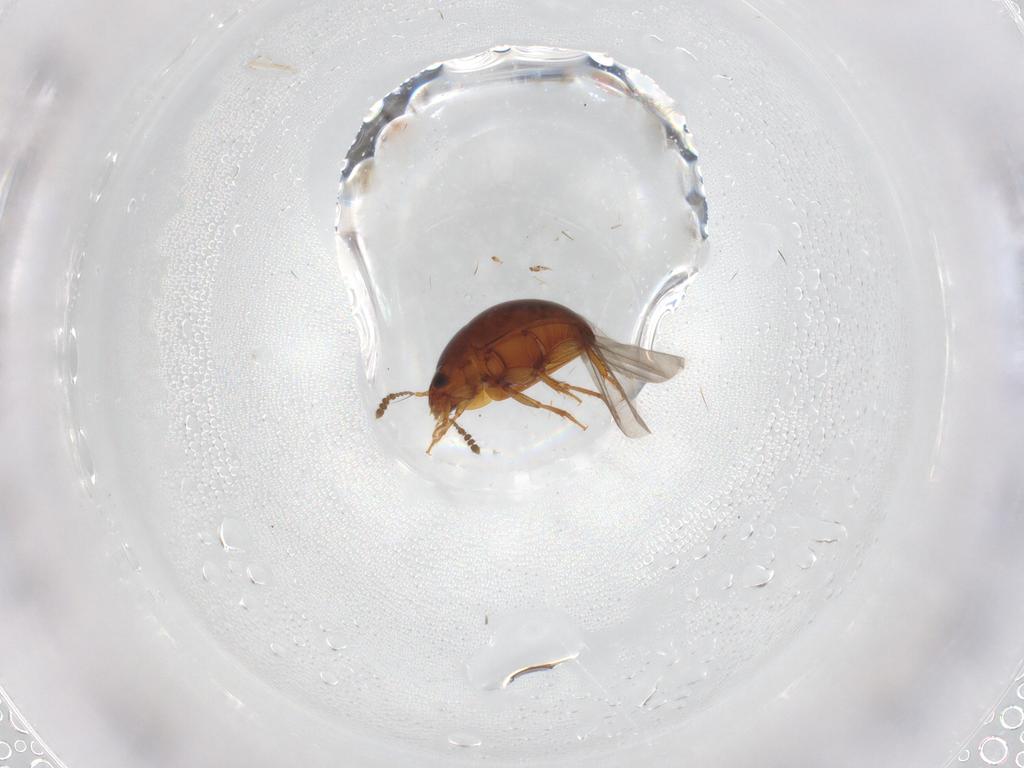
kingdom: Animalia
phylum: Arthropoda
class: Insecta
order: Coleoptera
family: Leiodidae
